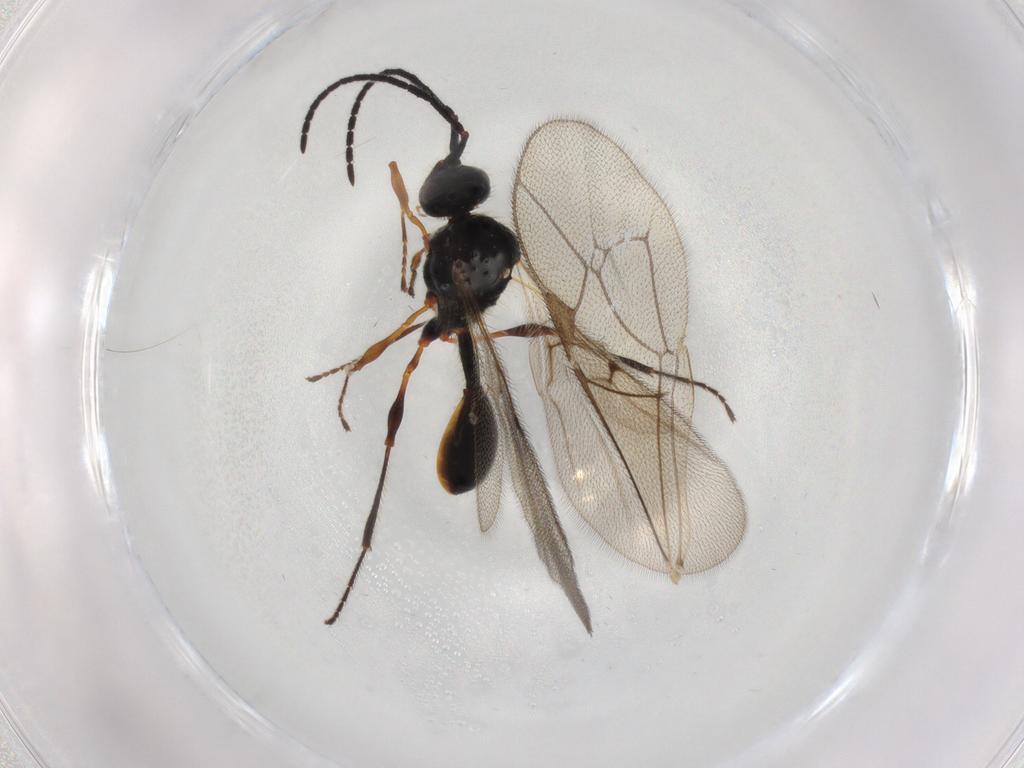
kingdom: Animalia
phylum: Arthropoda
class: Insecta
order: Hymenoptera
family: Diapriidae
